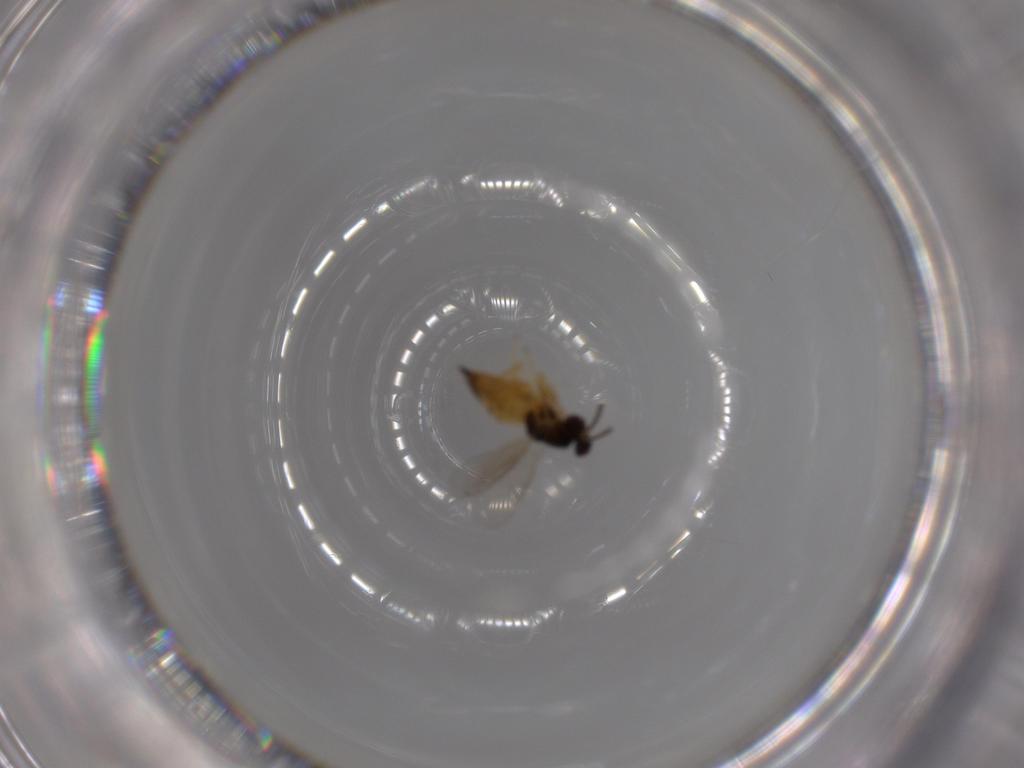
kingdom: Animalia
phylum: Arthropoda
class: Insecta
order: Hymenoptera
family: Eulophidae
